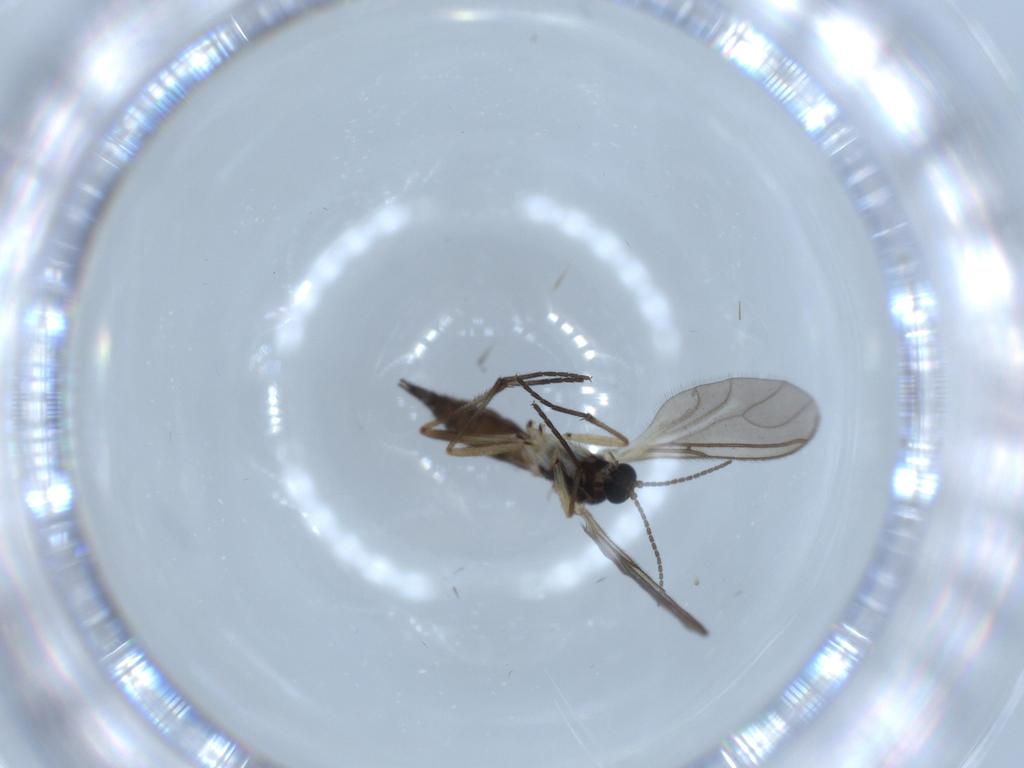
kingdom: Animalia
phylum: Arthropoda
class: Insecta
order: Diptera
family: Sciaridae
